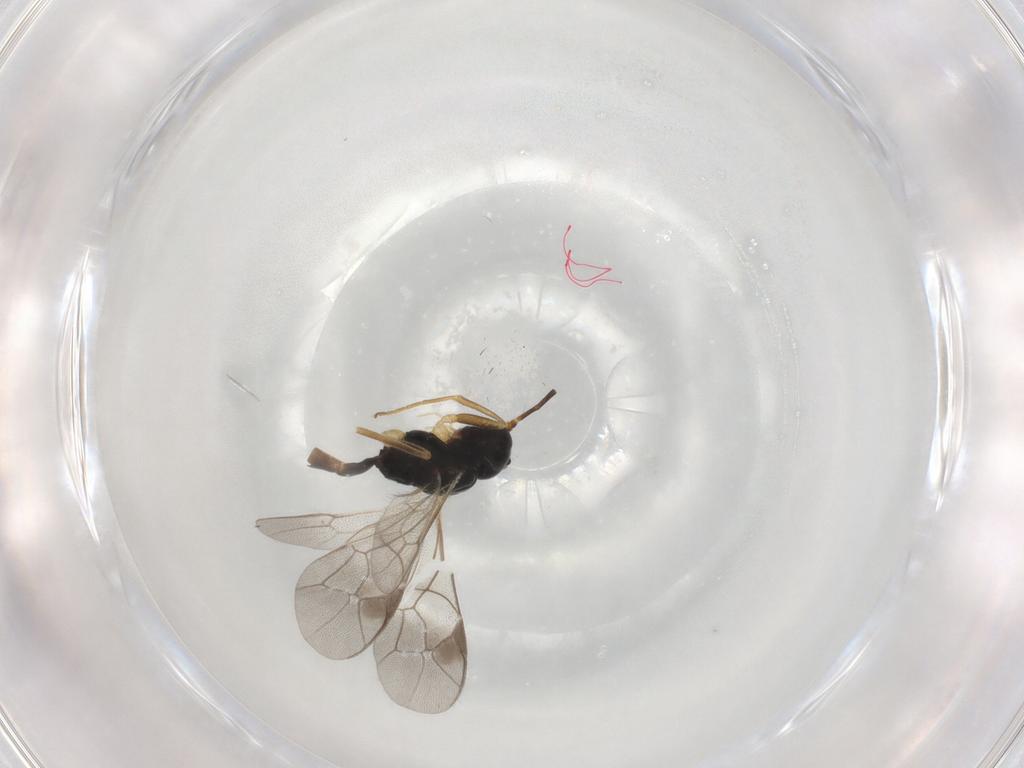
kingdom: Animalia
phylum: Arthropoda
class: Insecta
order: Hymenoptera
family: Ichneumonidae
